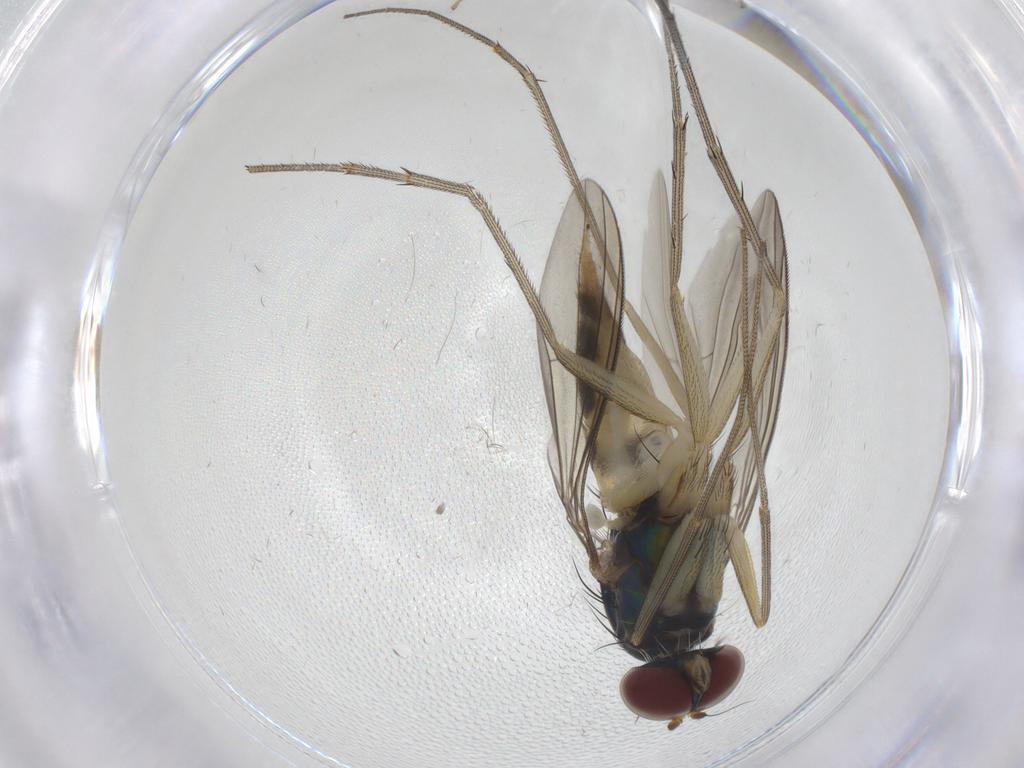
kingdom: Animalia
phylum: Arthropoda
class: Insecta
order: Diptera
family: Dolichopodidae
